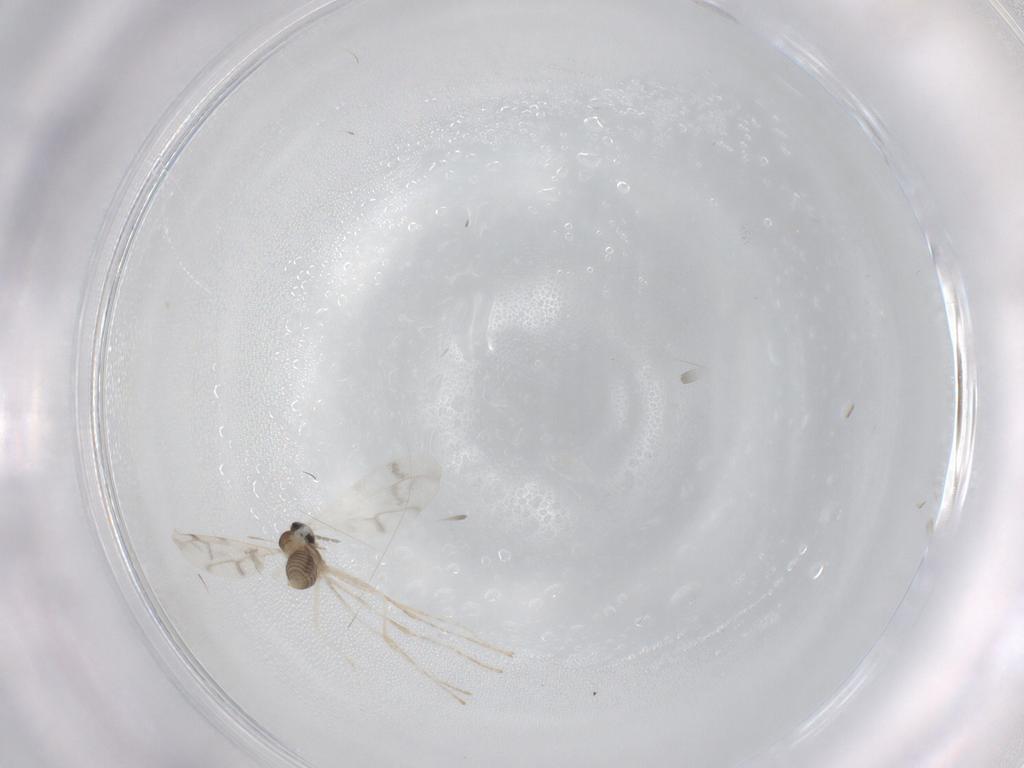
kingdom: Animalia
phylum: Arthropoda
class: Insecta
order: Diptera
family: Cecidomyiidae
